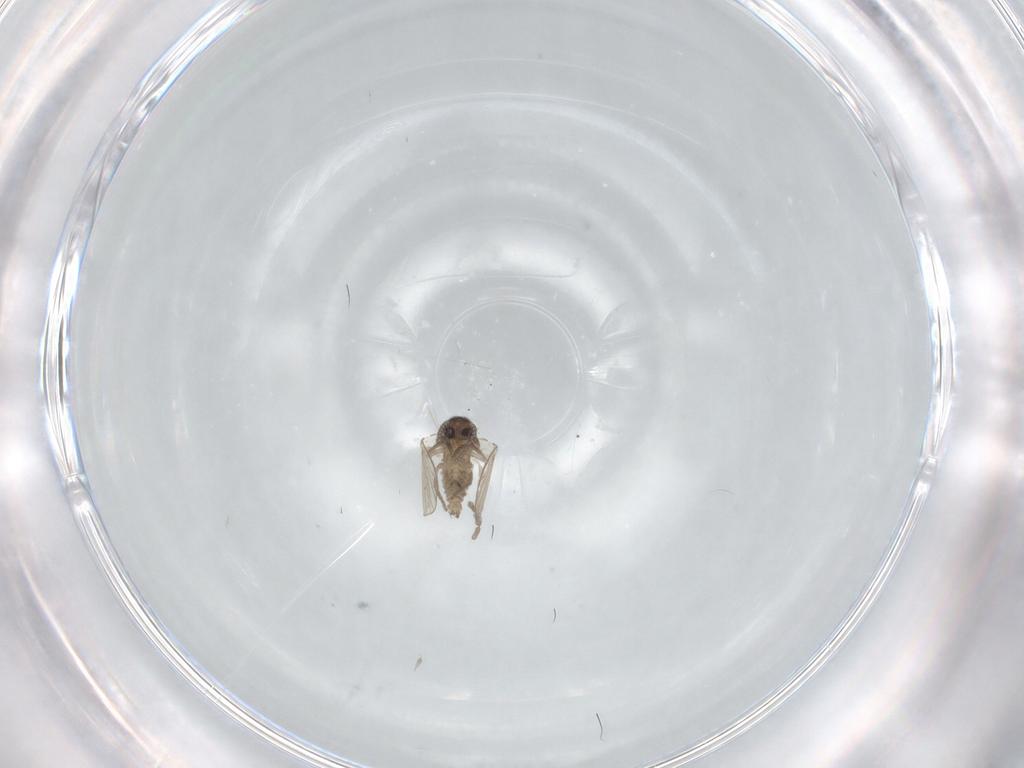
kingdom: Animalia
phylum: Arthropoda
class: Insecta
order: Diptera
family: Psychodidae
